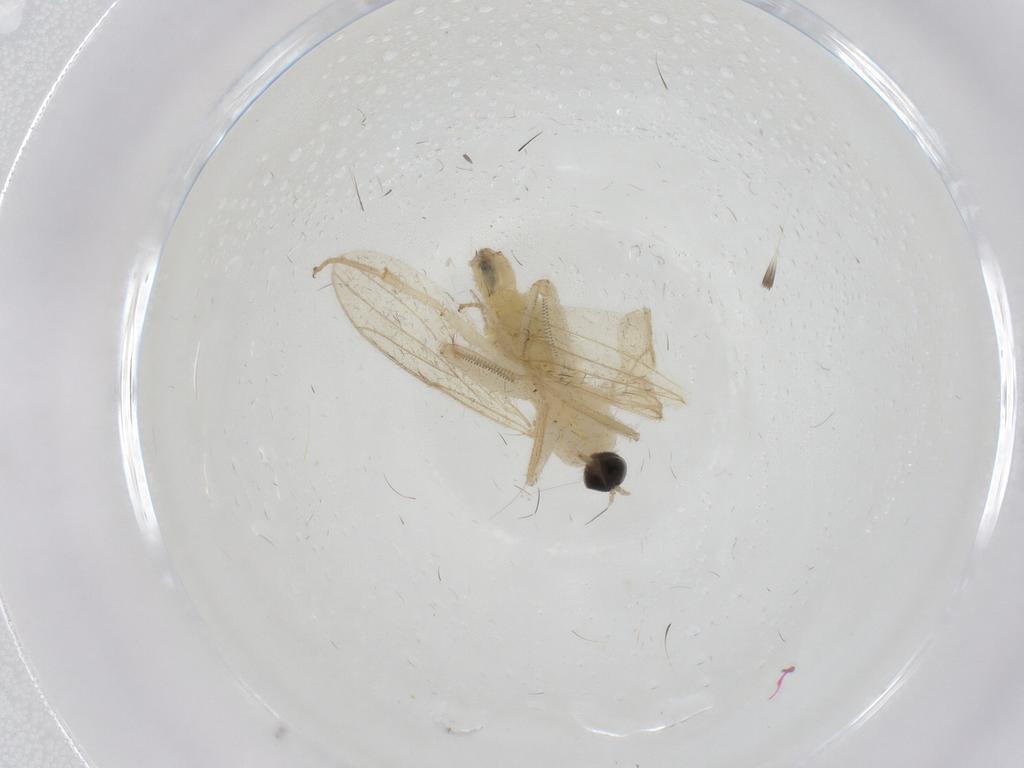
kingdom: Animalia
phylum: Arthropoda
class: Insecta
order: Diptera
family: Hybotidae
